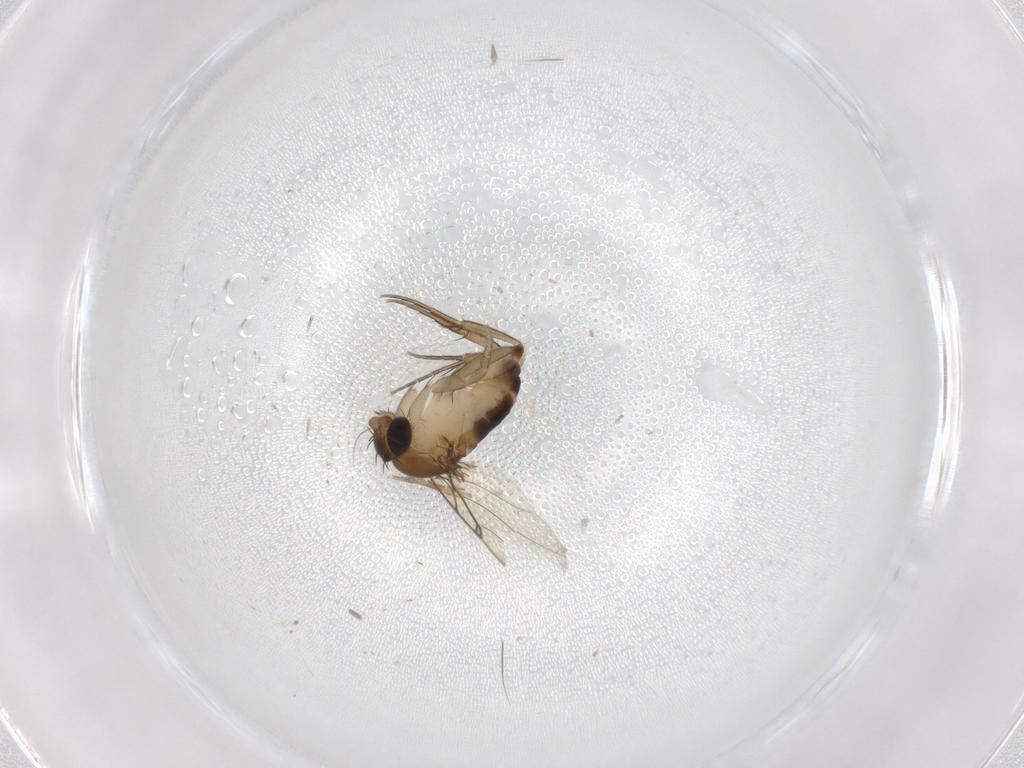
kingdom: Animalia
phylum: Arthropoda
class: Insecta
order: Diptera
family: Phoridae
